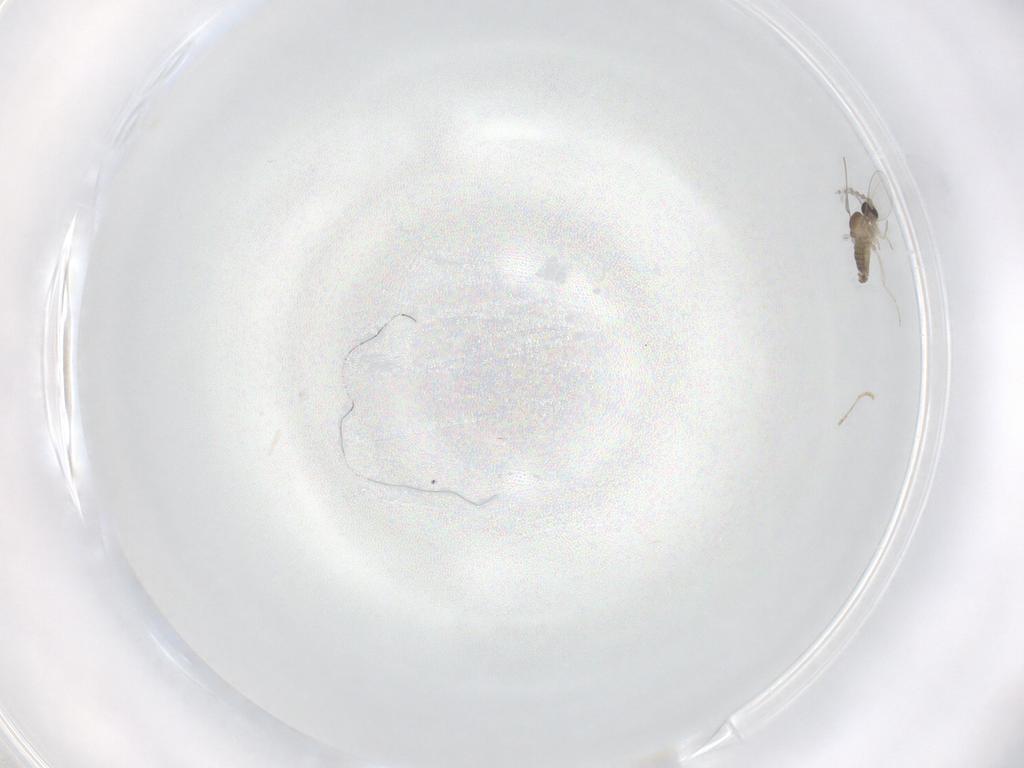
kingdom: Animalia
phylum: Arthropoda
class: Insecta
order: Diptera
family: Cecidomyiidae
